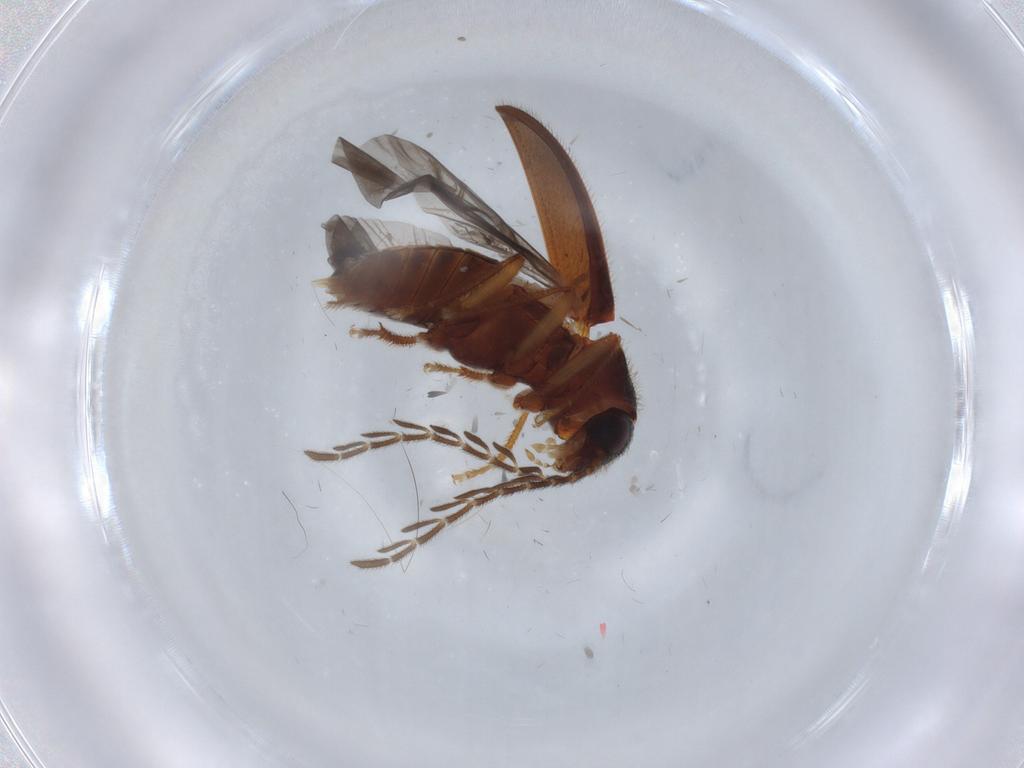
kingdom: Animalia
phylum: Arthropoda
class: Insecta
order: Coleoptera
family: Chrysomelidae
